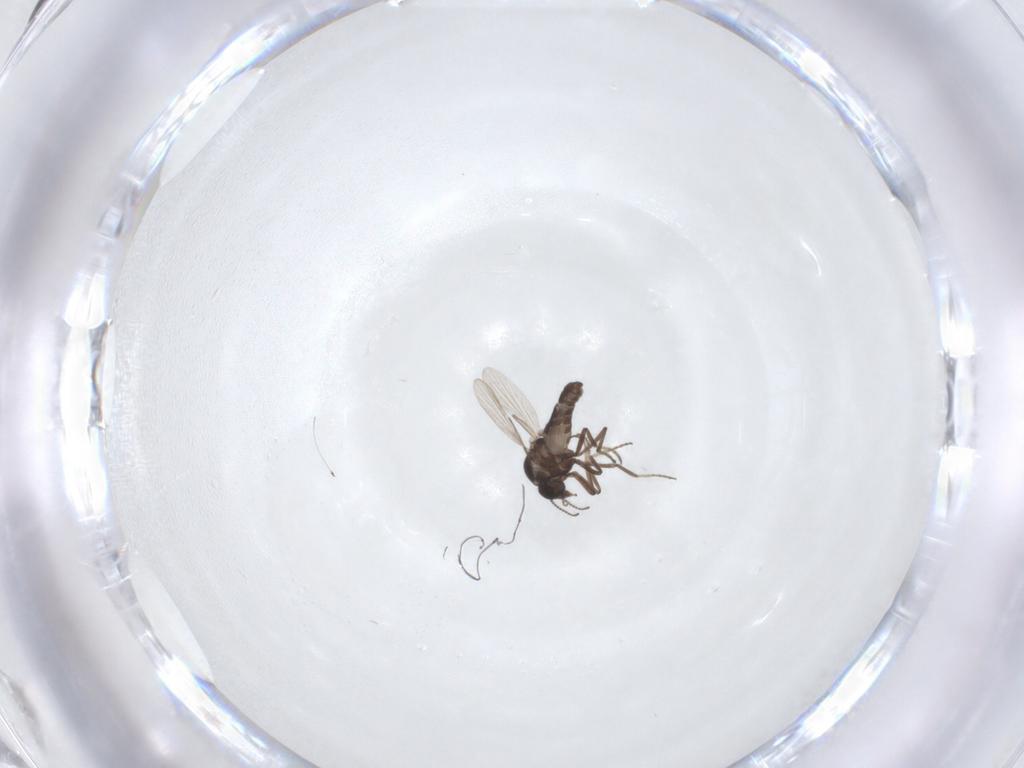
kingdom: Animalia
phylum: Arthropoda
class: Insecta
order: Diptera
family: Ceratopogonidae
